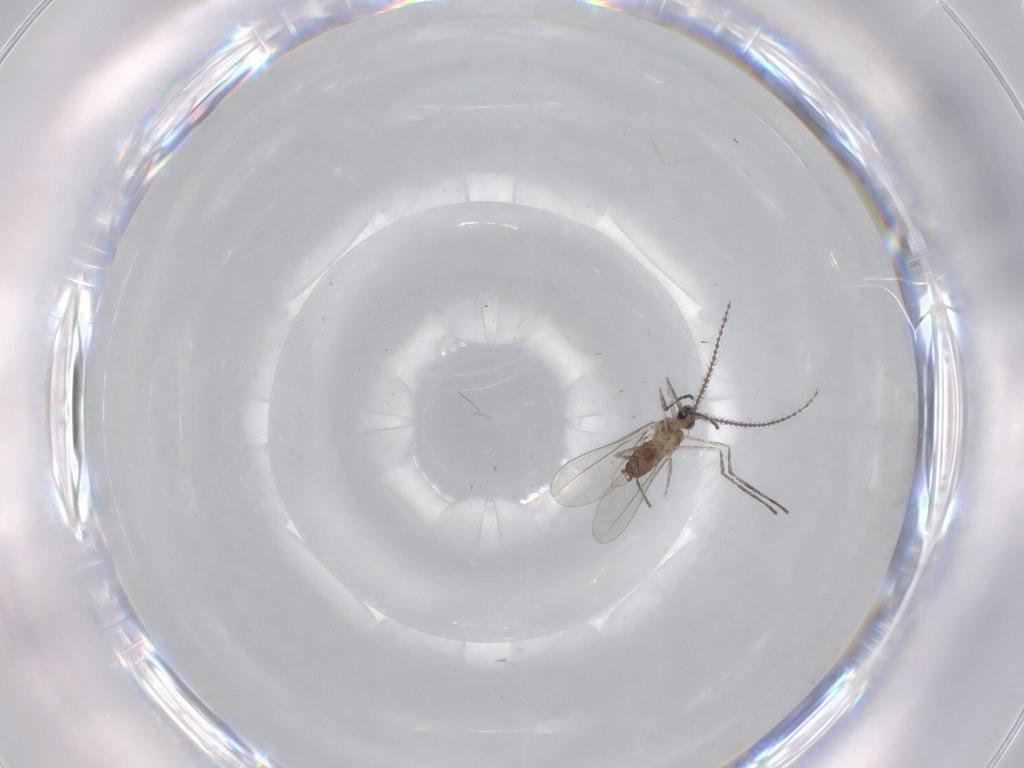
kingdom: Animalia
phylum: Arthropoda
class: Insecta
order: Diptera
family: Cecidomyiidae
